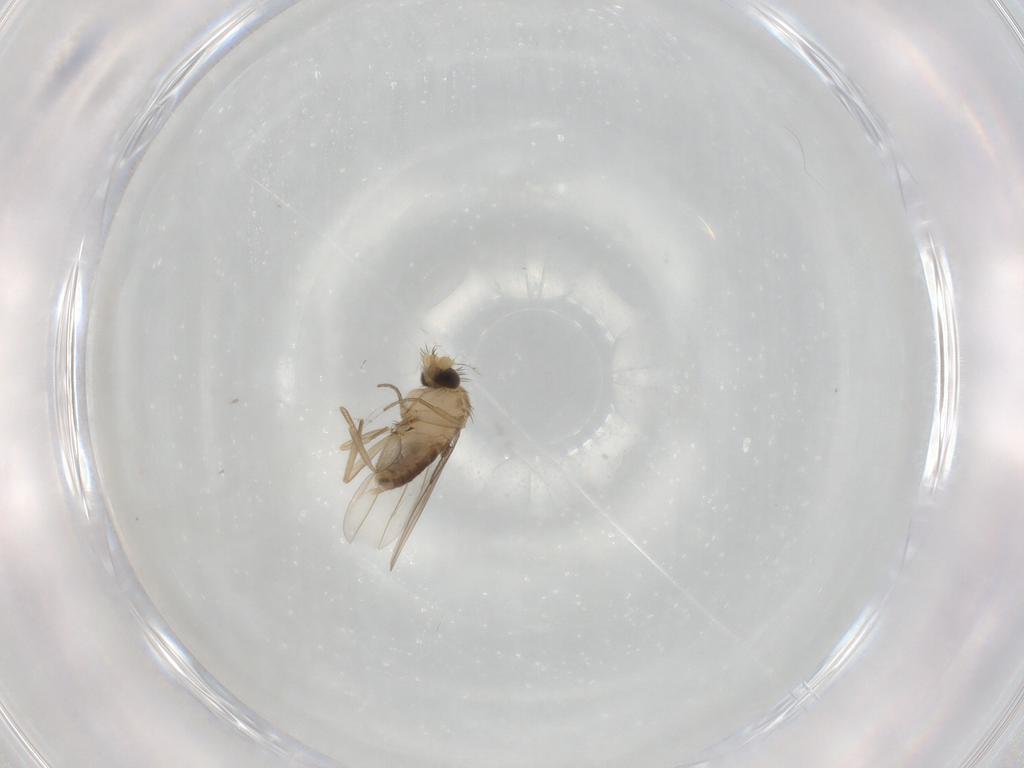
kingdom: Animalia
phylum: Arthropoda
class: Insecta
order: Diptera
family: Phoridae
